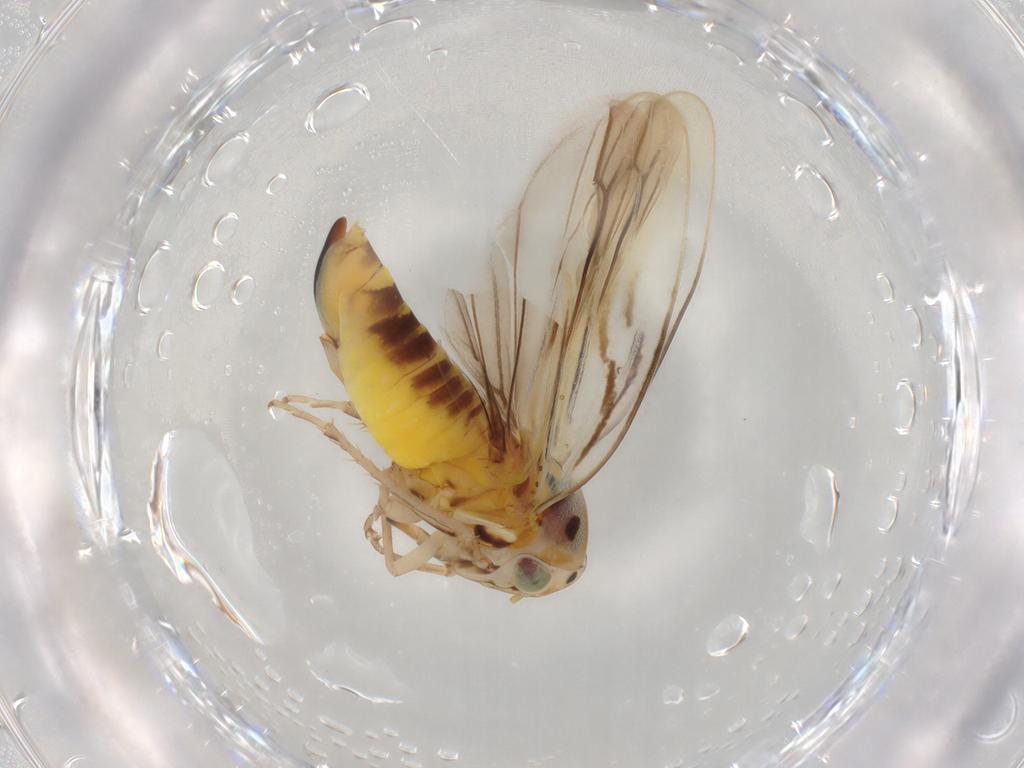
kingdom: Animalia
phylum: Arthropoda
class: Insecta
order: Hemiptera
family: Cicadellidae
